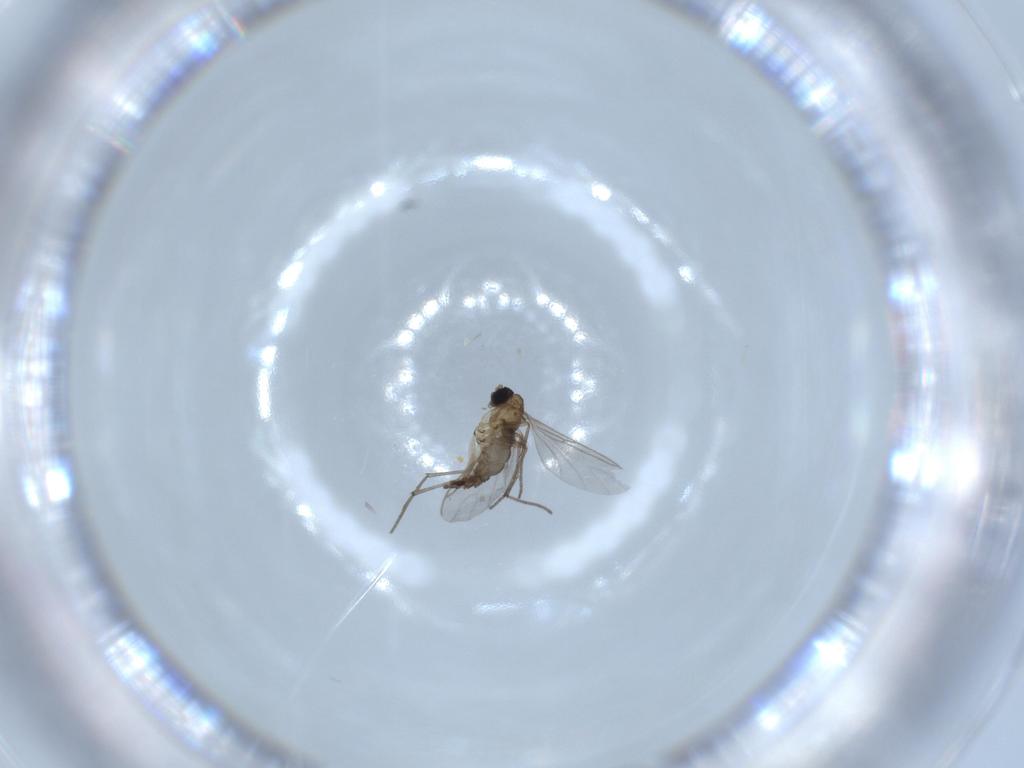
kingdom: Animalia
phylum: Arthropoda
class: Insecta
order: Diptera
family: Sciaridae
